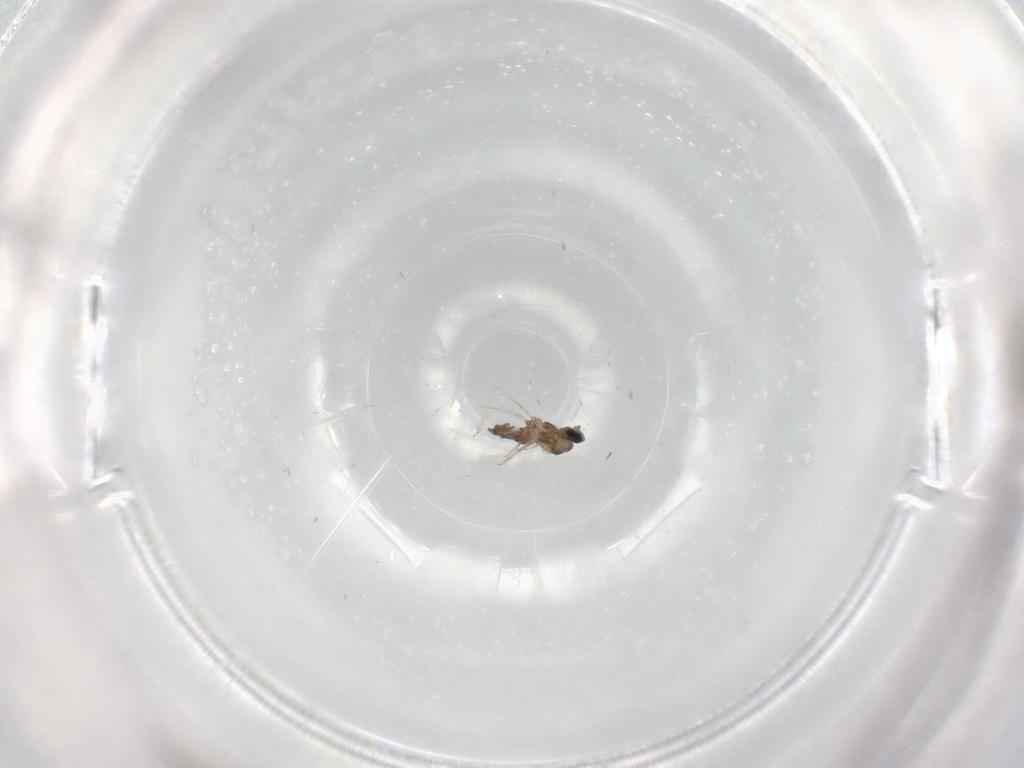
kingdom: Animalia
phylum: Arthropoda
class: Insecta
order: Diptera
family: Cecidomyiidae
